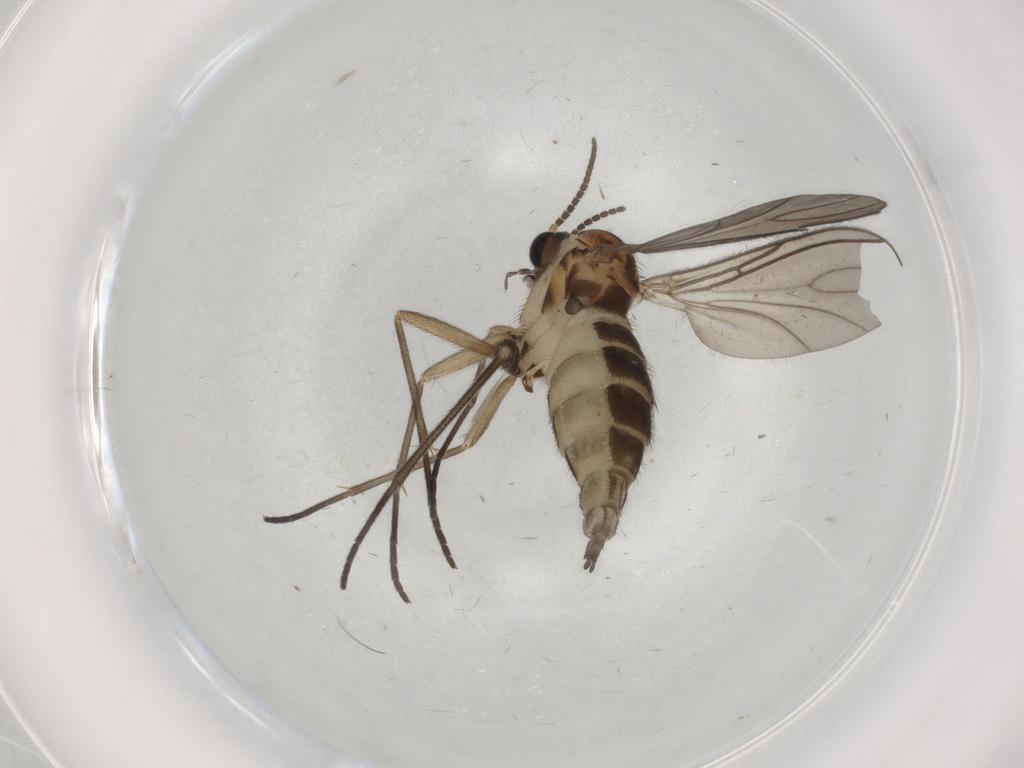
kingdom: Animalia
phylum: Arthropoda
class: Insecta
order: Diptera
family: Sciaridae
